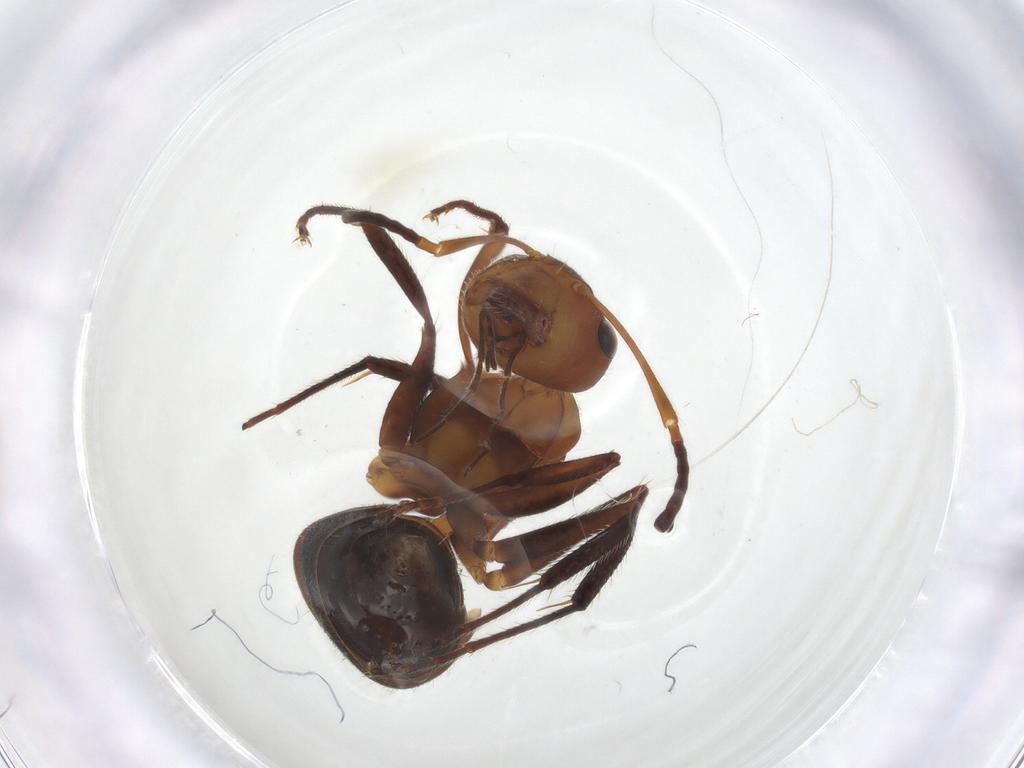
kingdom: Animalia
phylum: Arthropoda
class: Insecta
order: Hymenoptera
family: Formicidae
